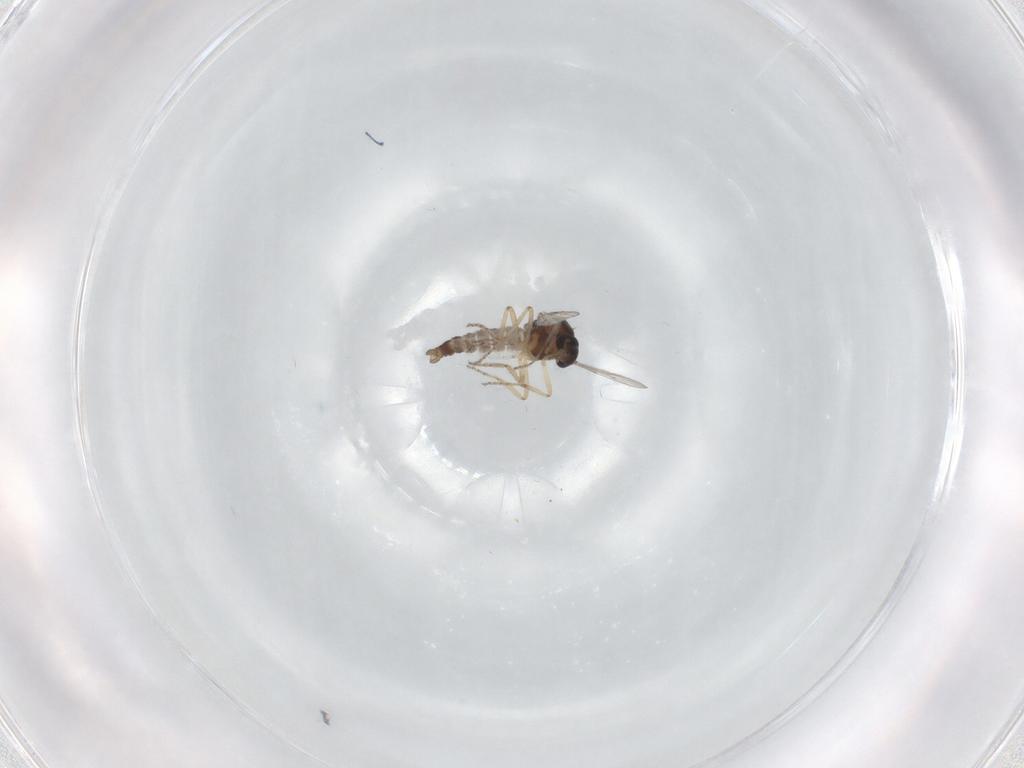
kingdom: Animalia
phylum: Arthropoda
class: Insecta
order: Diptera
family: Ceratopogonidae
